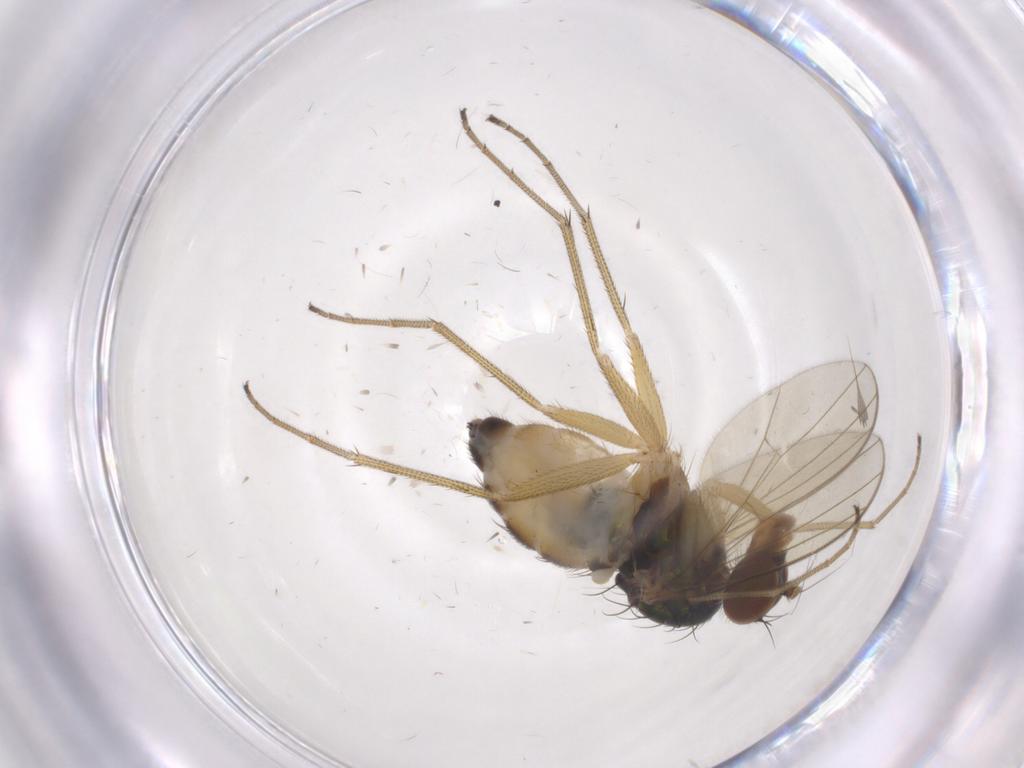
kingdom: Animalia
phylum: Arthropoda
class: Insecta
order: Diptera
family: Dolichopodidae
